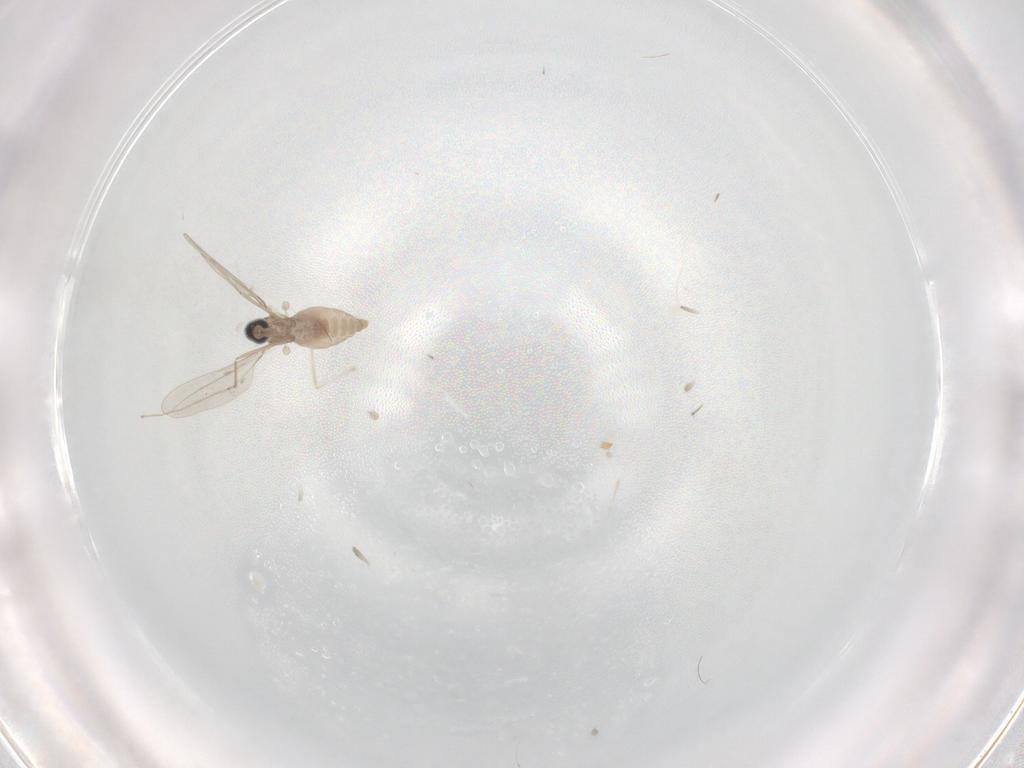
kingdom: Animalia
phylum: Arthropoda
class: Insecta
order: Diptera
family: Cecidomyiidae
